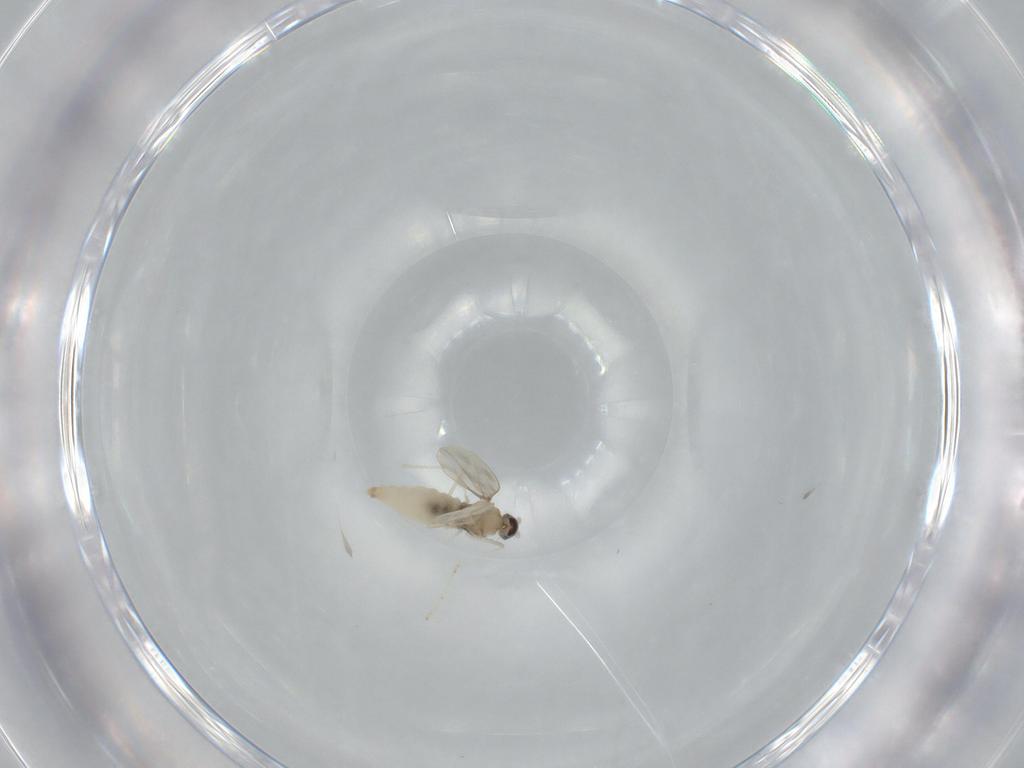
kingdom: Animalia
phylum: Arthropoda
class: Insecta
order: Diptera
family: Cecidomyiidae
